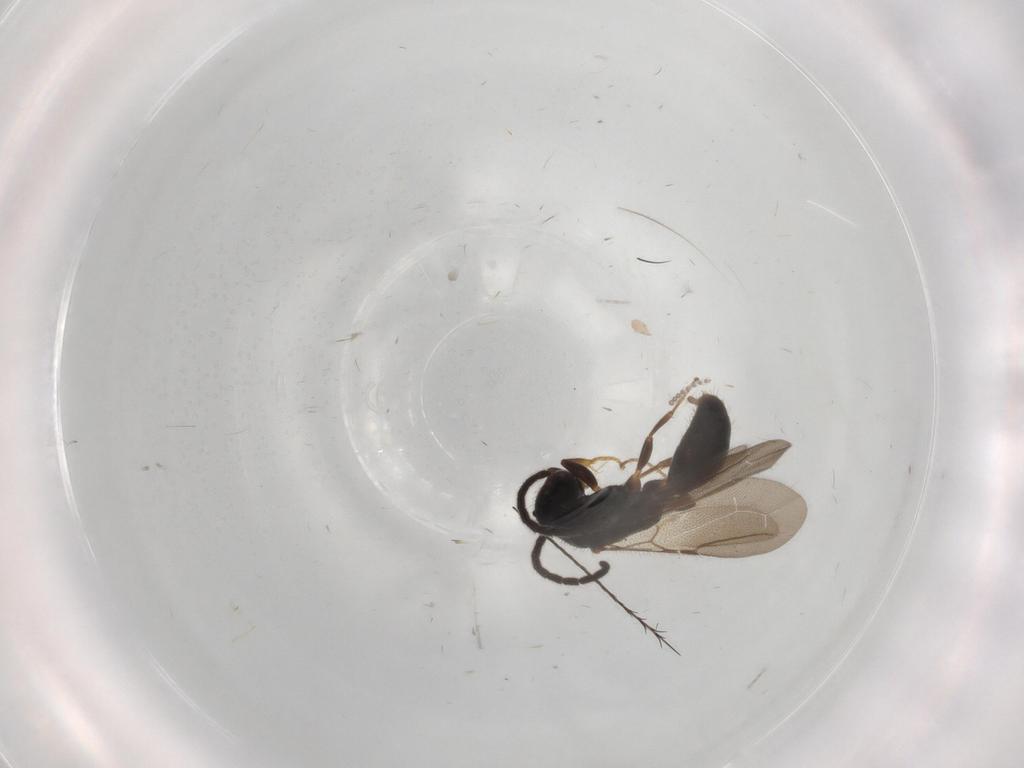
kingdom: Animalia
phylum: Arthropoda
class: Insecta
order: Hymenoptera
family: Bethylidae
